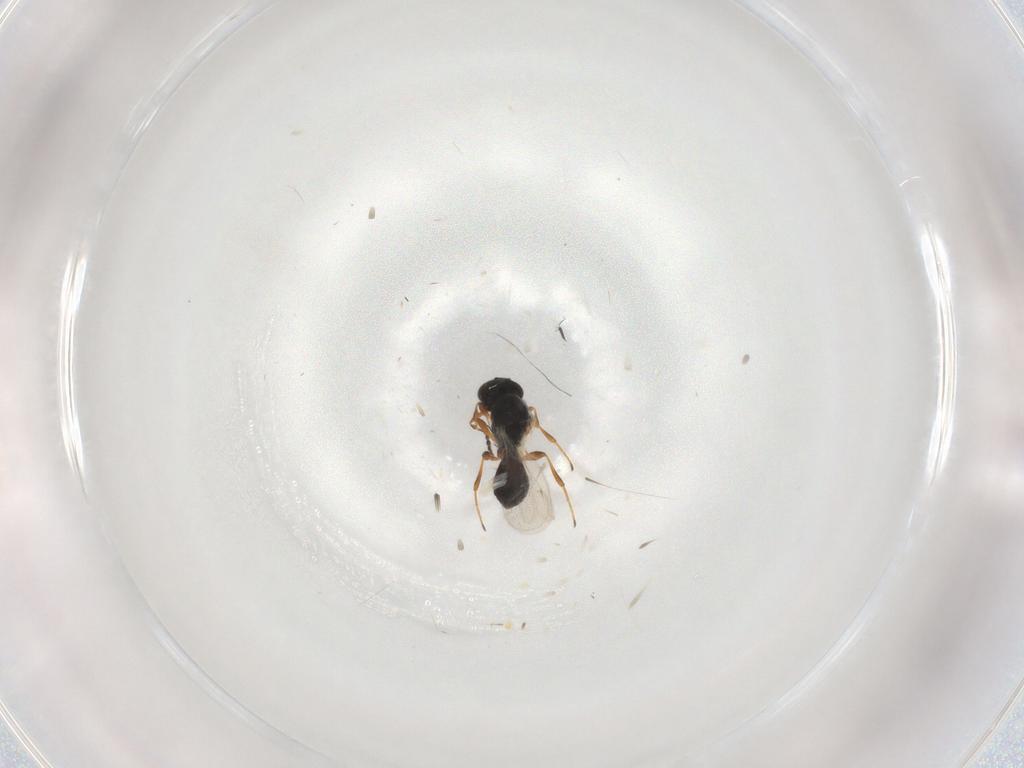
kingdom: Animalia
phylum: Arthropoda
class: Insecta
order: Hymenoptera
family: Platygastridae
